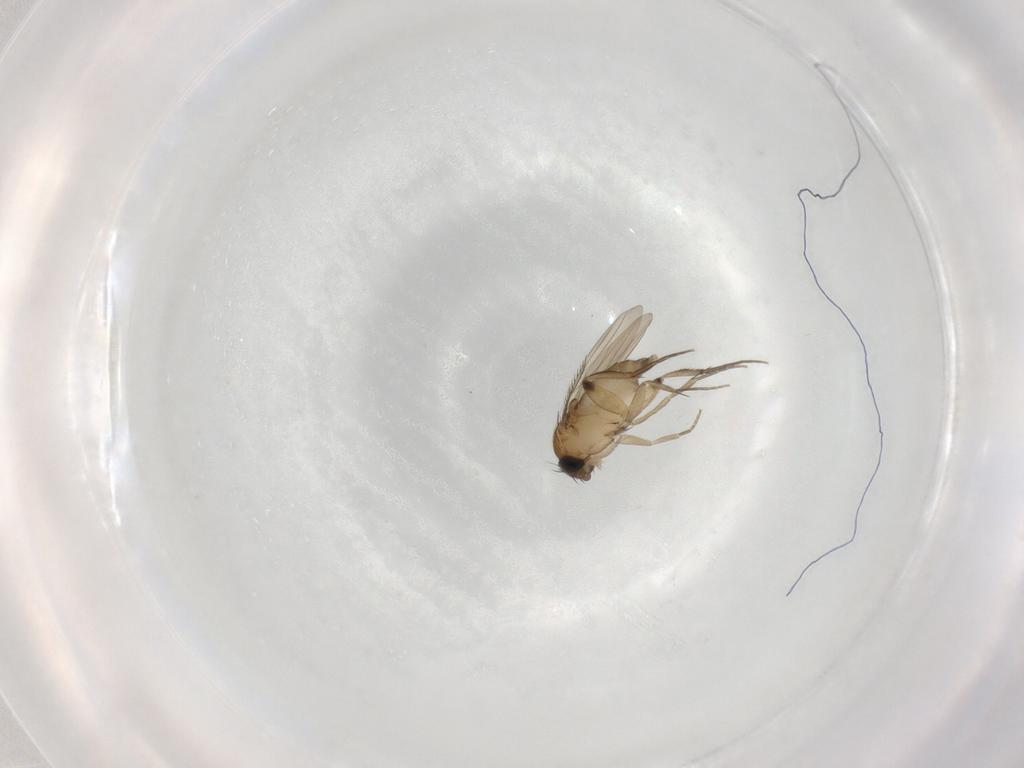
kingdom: Animalia
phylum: Arthropoda
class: Insecta
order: Diptera
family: Phoridae
